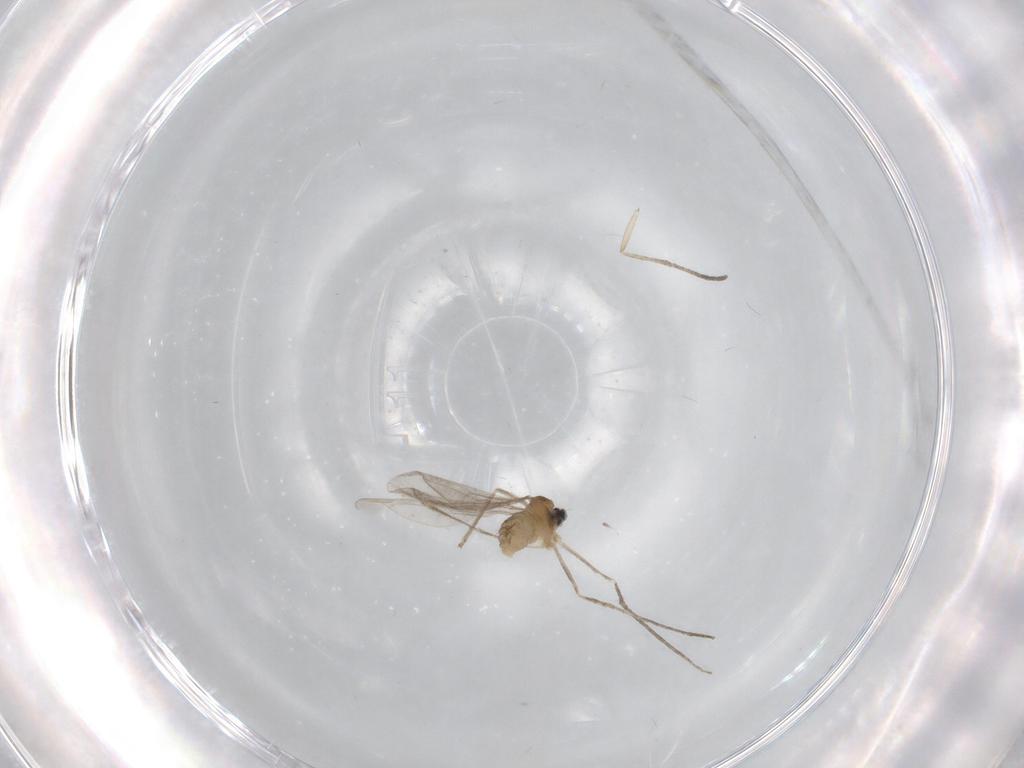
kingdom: Animalia
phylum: Arthropoda
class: Insecta
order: Diptera
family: Cecidomyiidae
